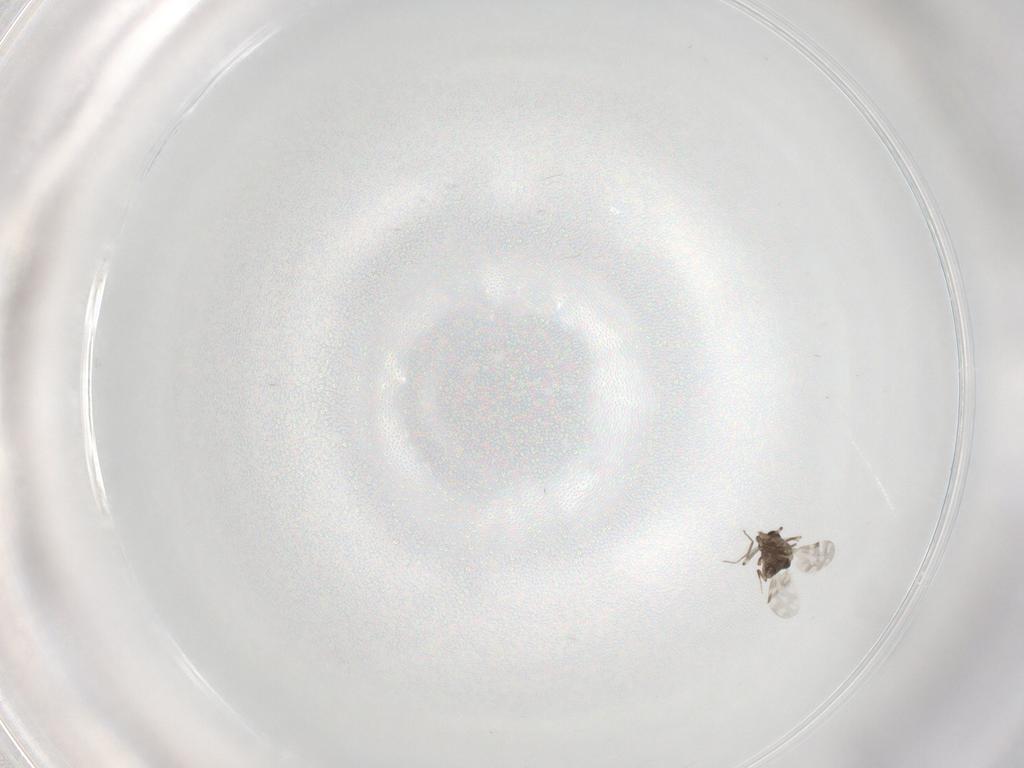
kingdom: Animalia
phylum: Arthropoda
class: Insecta
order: Diptera
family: Ceratopogonidae
